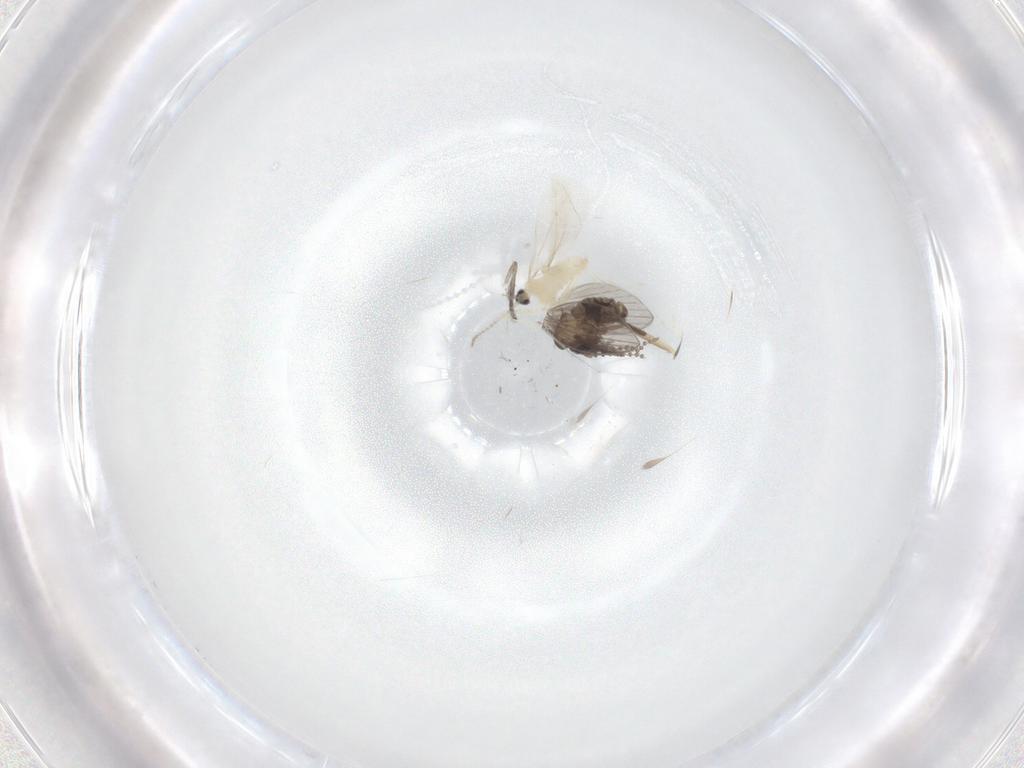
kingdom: Animalia
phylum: Arthropoda
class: Insecta
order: Diptera
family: Psychodidae
